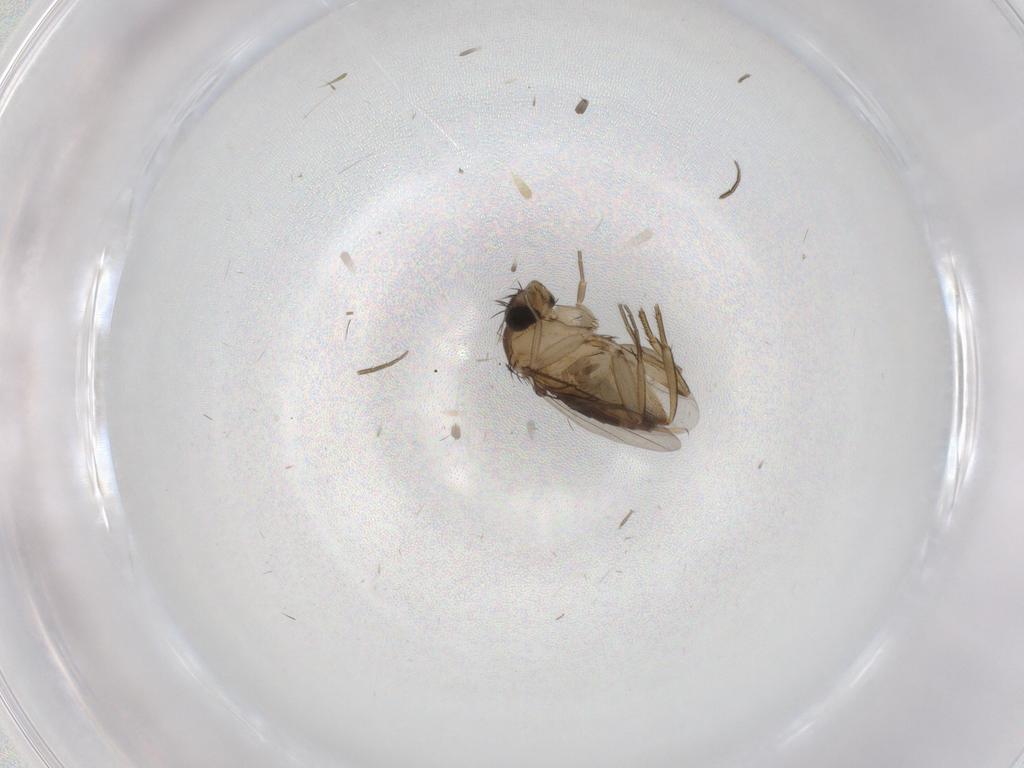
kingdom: Animalia
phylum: Arthropoda
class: Insecta
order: Diptera
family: Phoridae
